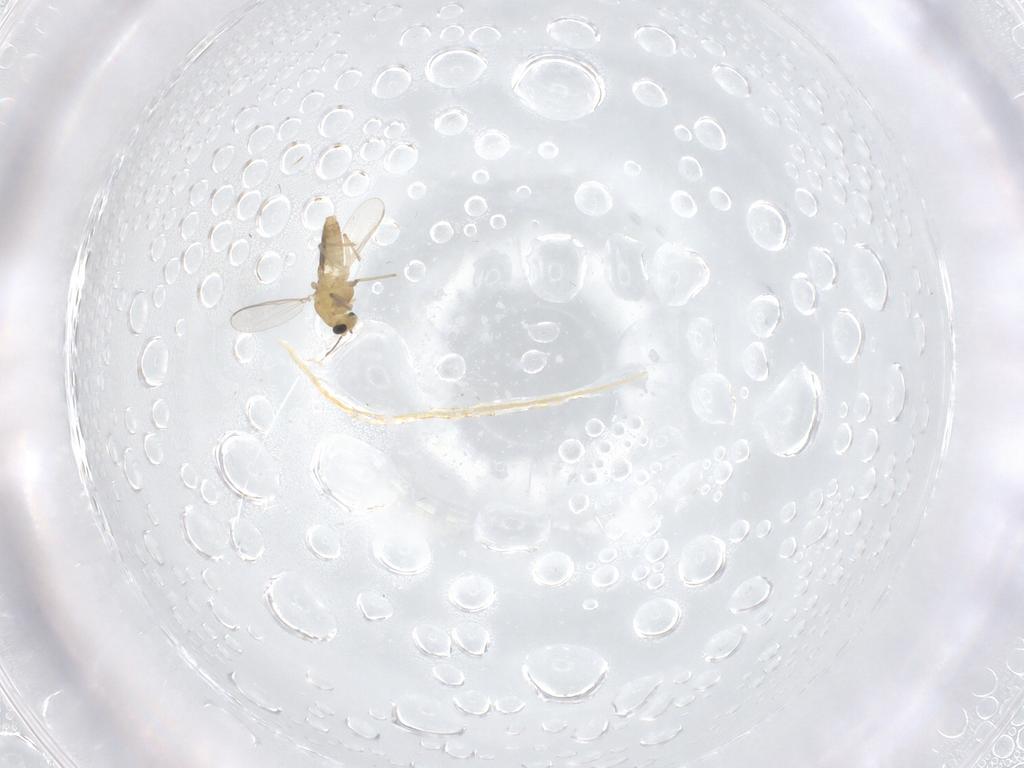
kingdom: Animalia
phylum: Arthropoda
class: Insecta
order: Diptera
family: Chironomidae
